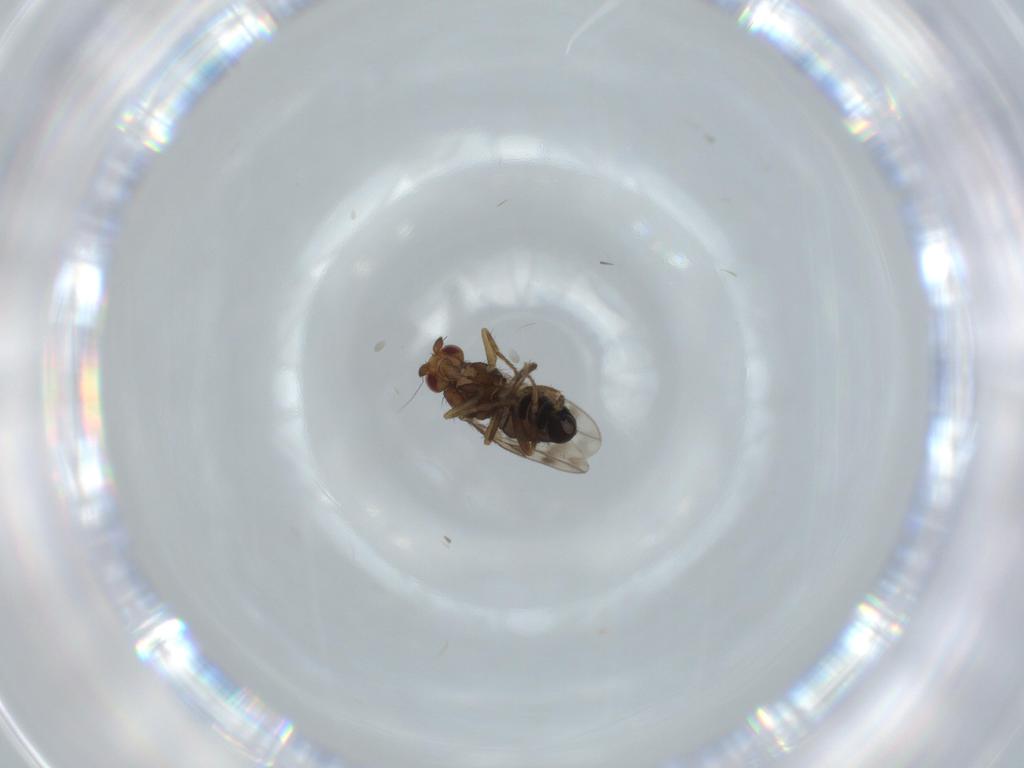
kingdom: Animalia
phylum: Arthropoda
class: Insecta
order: Diptera
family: Sphaeroceridae
